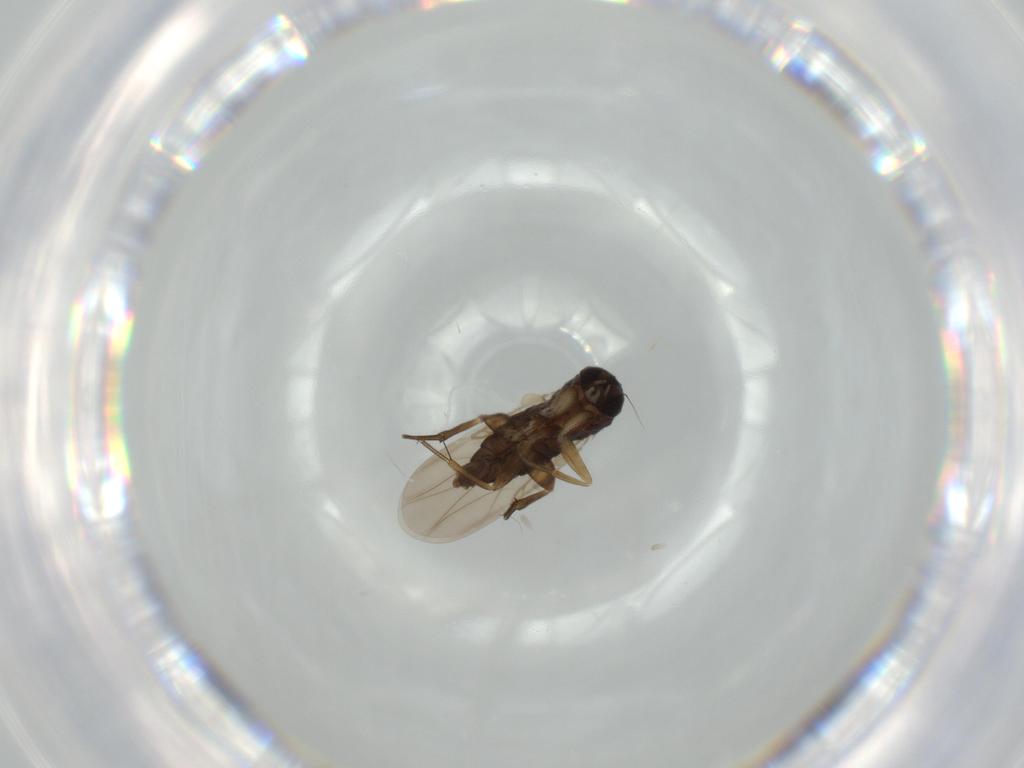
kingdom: Animalia
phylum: Arthropoda
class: Insecta
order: Diptera
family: Phoridae
